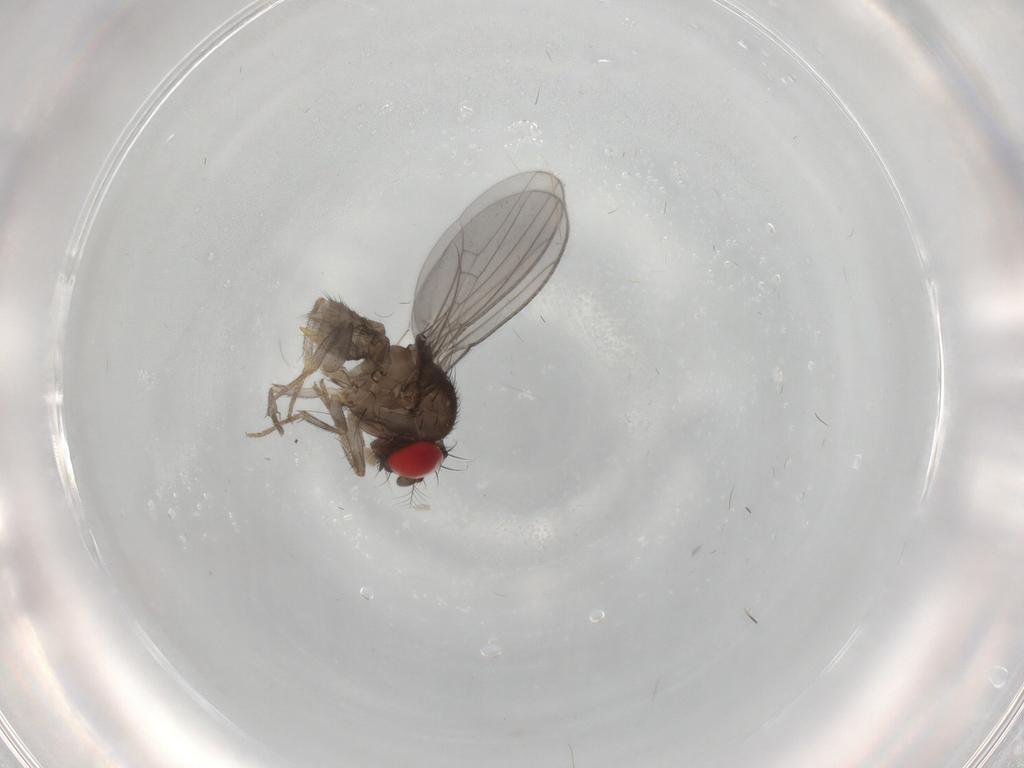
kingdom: Animalia
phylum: Arthropoda
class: Insecta
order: Diptera
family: Drosophilidae
